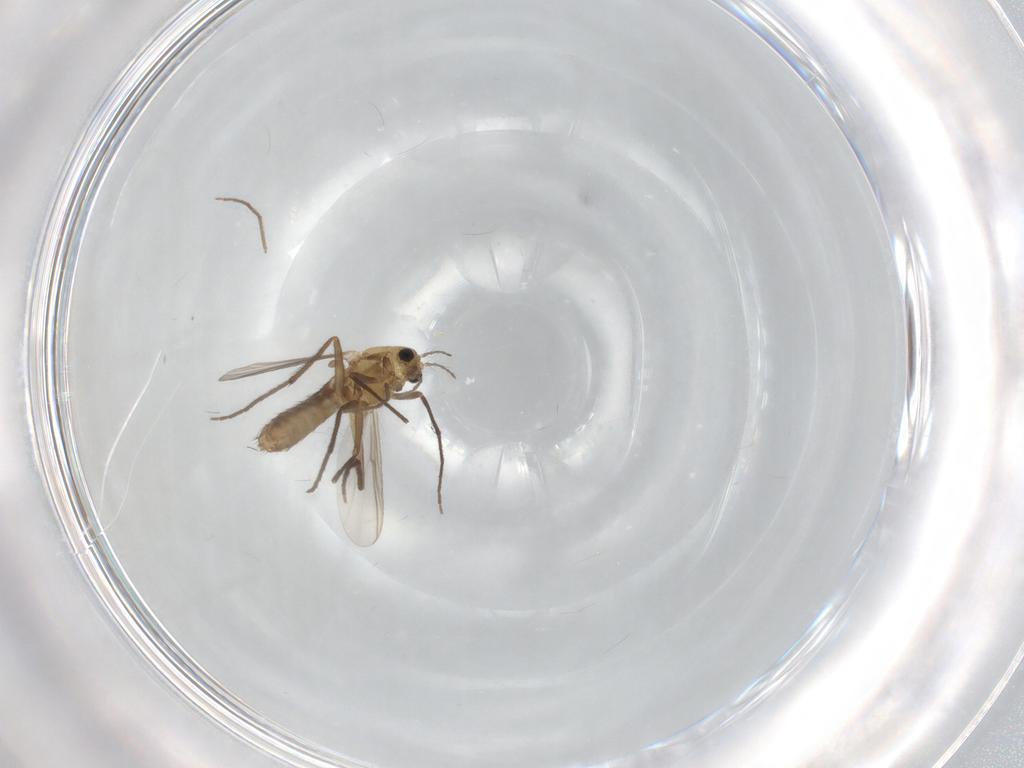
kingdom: Animalia
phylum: Arthropoda
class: Insecta
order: Diptera
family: Chironomidae
